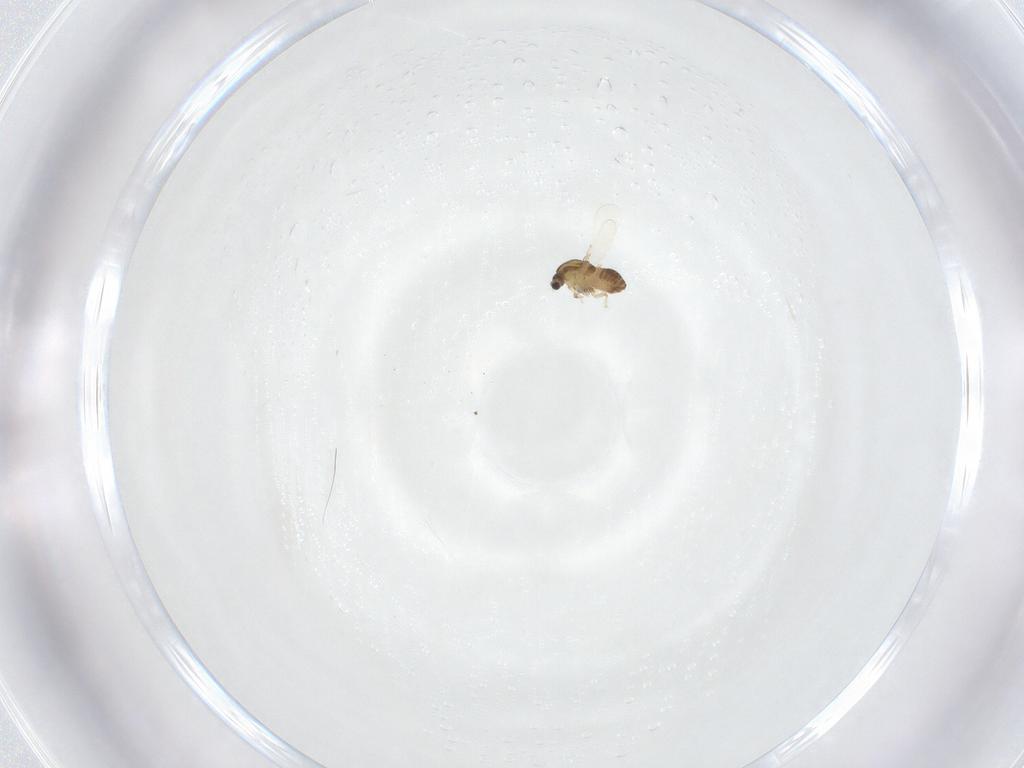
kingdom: Animalia
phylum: Arthropoda
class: Insecta
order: Diptera
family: Chironomidae
